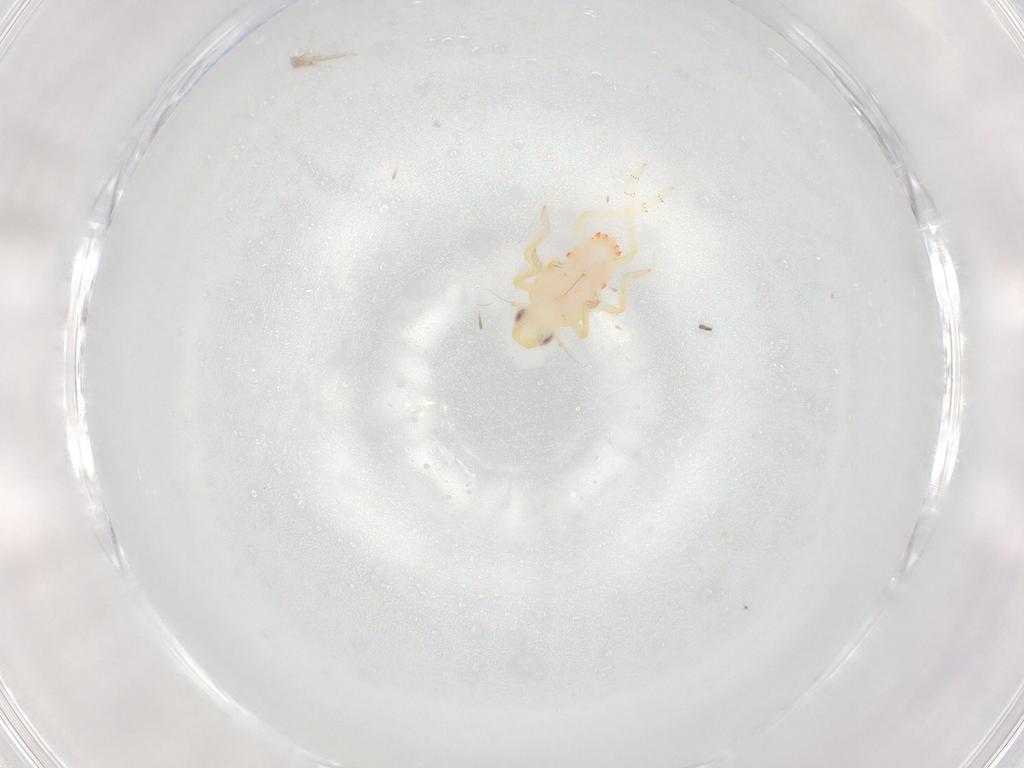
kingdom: Animalia
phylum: Arthropoda
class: Insecta
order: Hemiptera
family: Tropiduchidae
